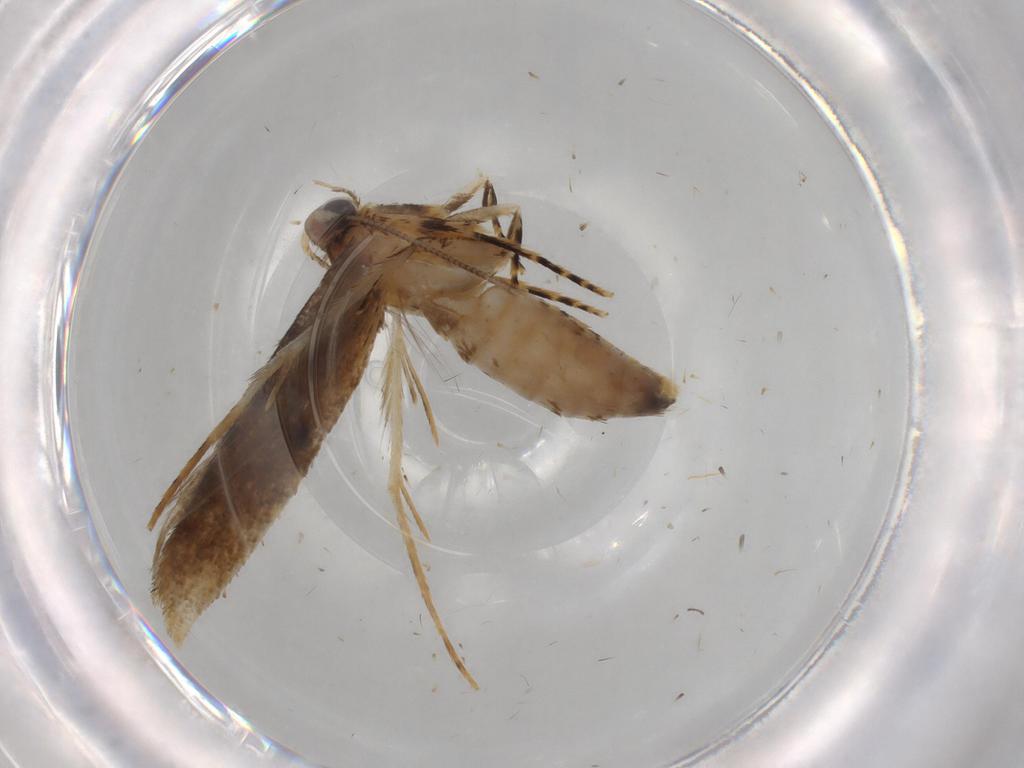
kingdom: Animalia
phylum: Arthropoda
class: Insecta
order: Lepidoptera
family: Tineidae
